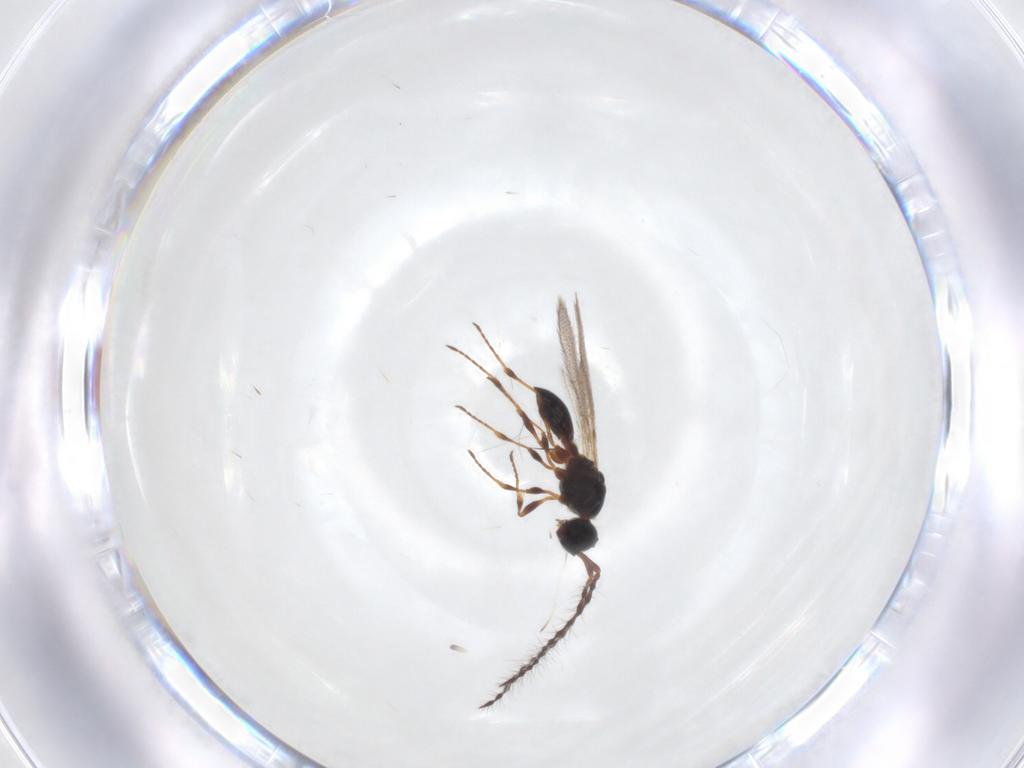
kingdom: Animalia
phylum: Arthropoda
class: Insecta
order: Hymenoptera
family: Diapriidae
